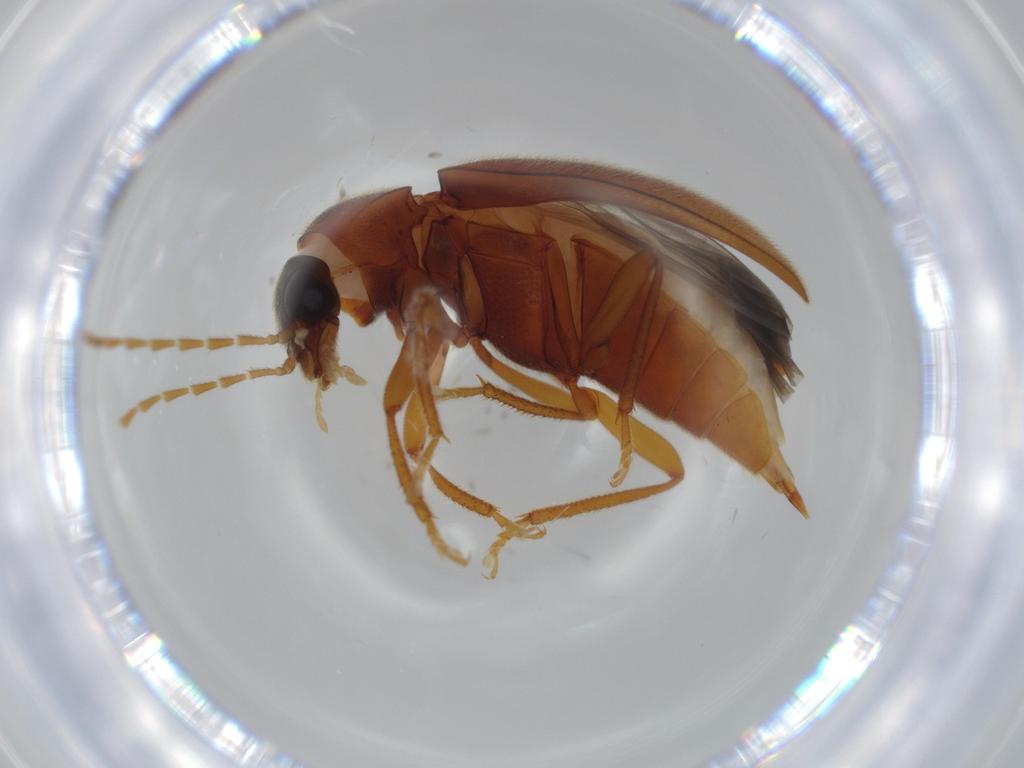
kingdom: Animalia
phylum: Arthropoda
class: Insecta
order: Coleoptera
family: Ptilodactylidae
